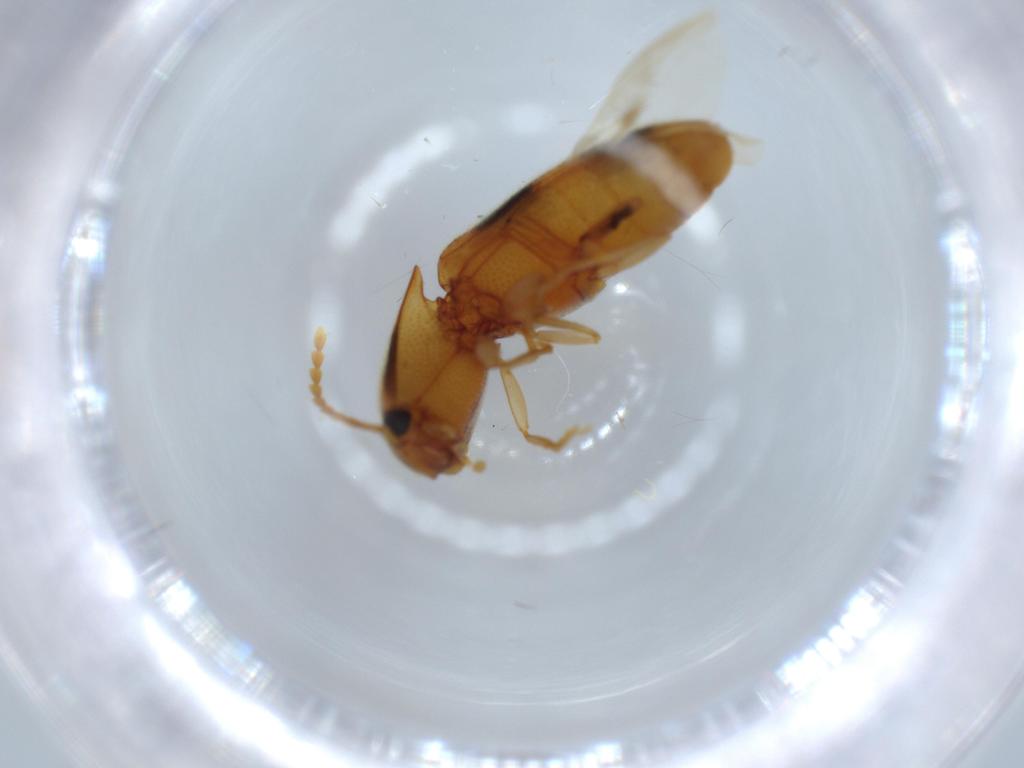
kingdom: Animalia
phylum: Arthropoda
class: Insecta
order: Coleoptera
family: Elateridae
